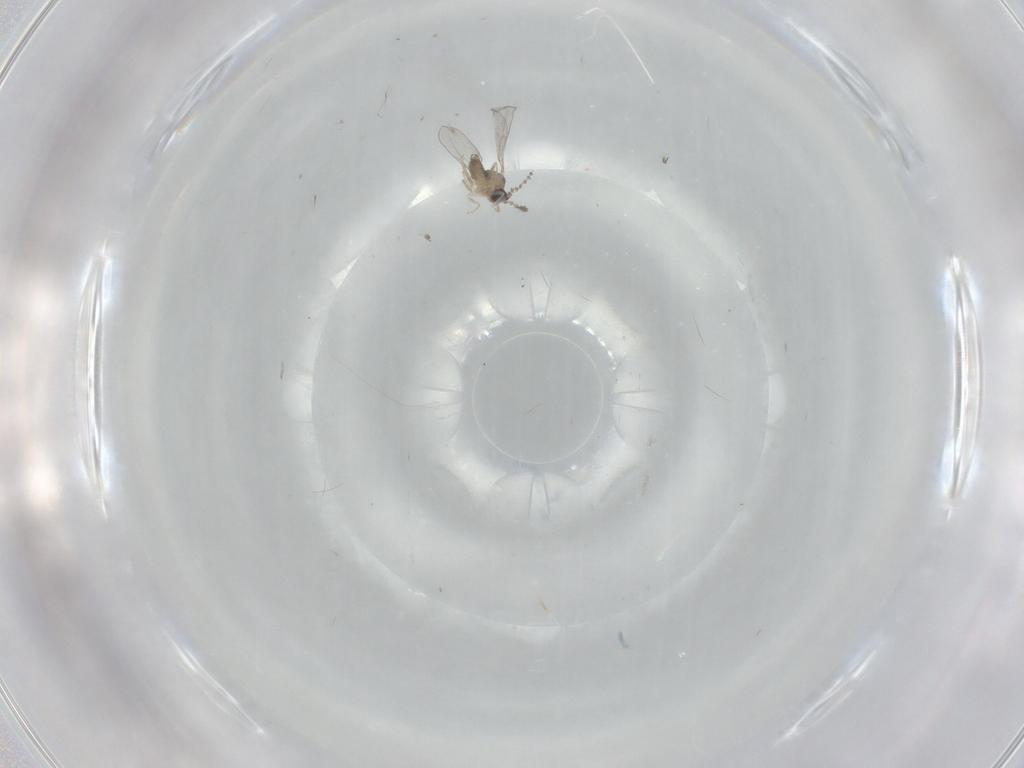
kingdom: Animalia
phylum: Arthropoda
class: Insecta
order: Diptera
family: Cecidomyiidae
